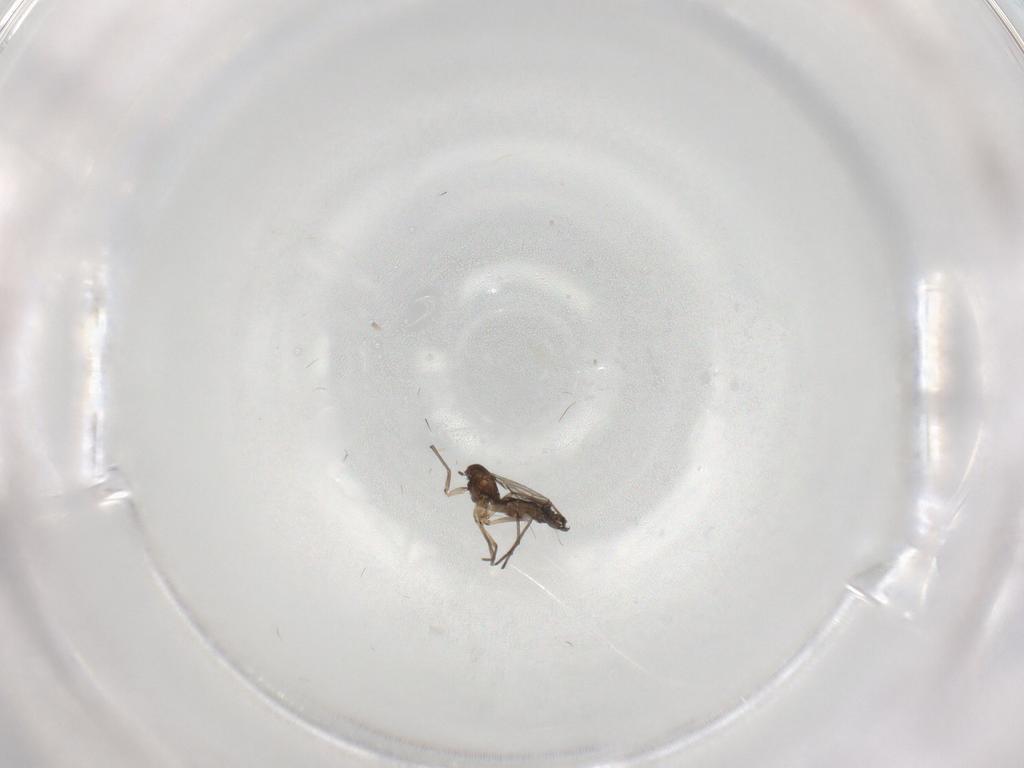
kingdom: Animalia
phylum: Arthropoda
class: Insecta
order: Diptera
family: Sciaridae
